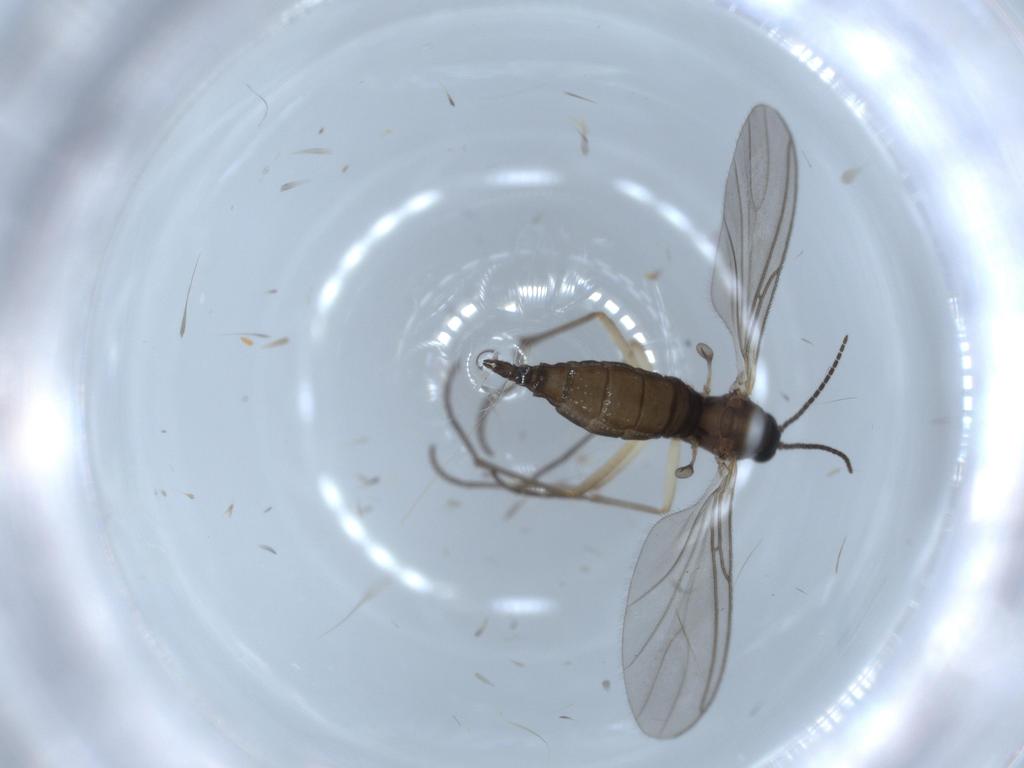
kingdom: Animalia
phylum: Arthropoda
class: Insecta
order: Diptera
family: Sciaridae
